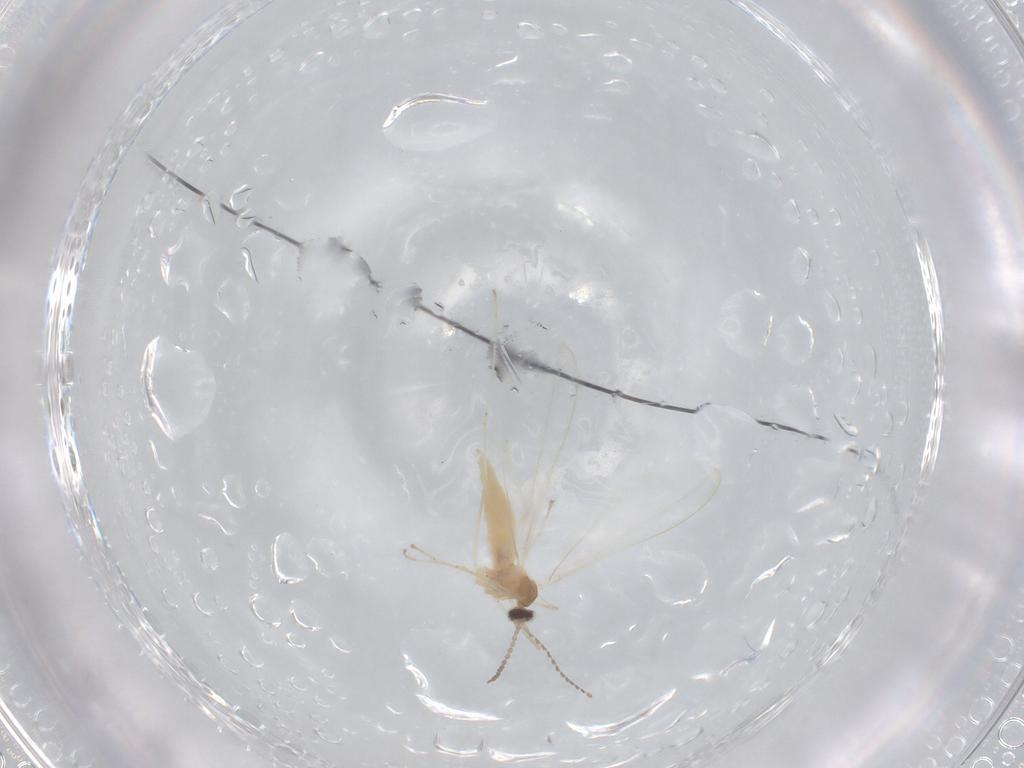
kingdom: Animalia
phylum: Arthropoda
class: Insecta
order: Diptera
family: Cecidomyiidae
